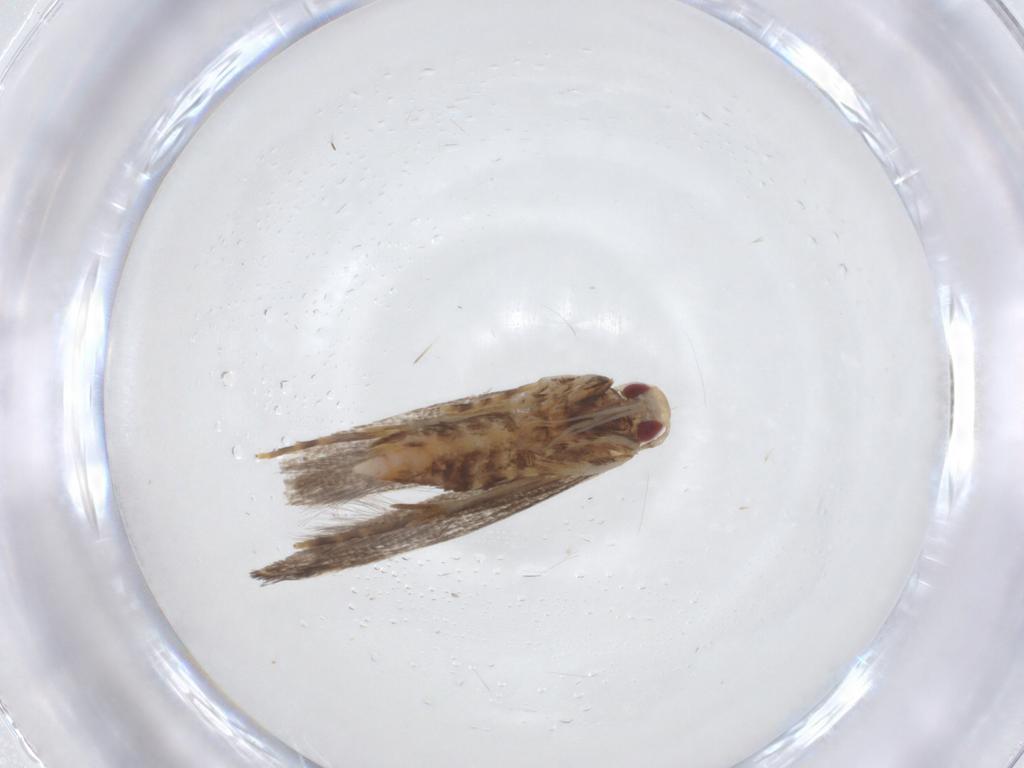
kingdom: Animalia
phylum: Arthropoda
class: Insecta
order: Lepidoptera
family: Cosmopterigidae
